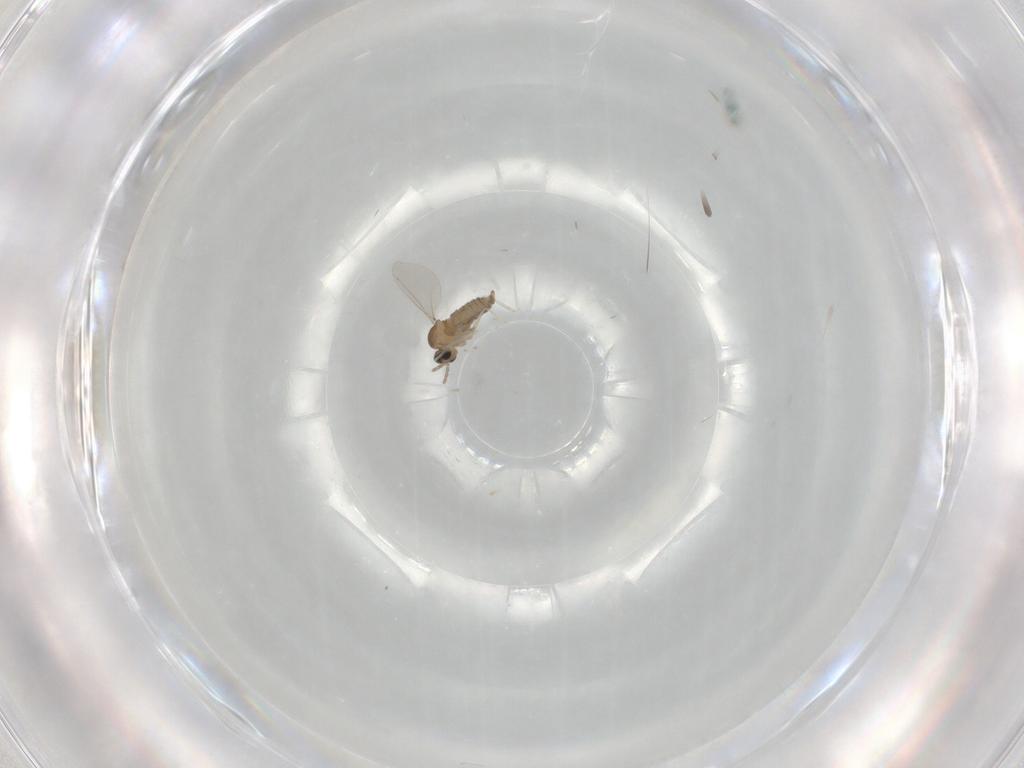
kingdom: Animalia
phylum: Arthropoda
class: Insecta
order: Diptera
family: Cecidomyiidae
